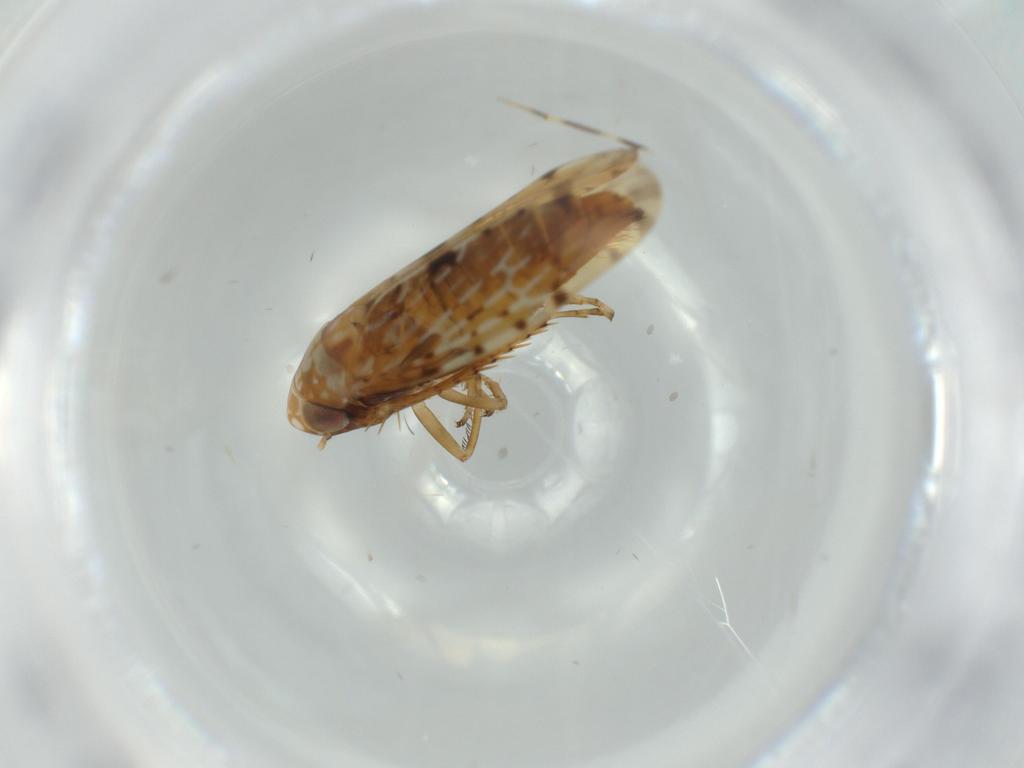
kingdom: Animalia
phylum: Arthropoda
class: Insecta
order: Hemiptera
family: Cicadellidae
